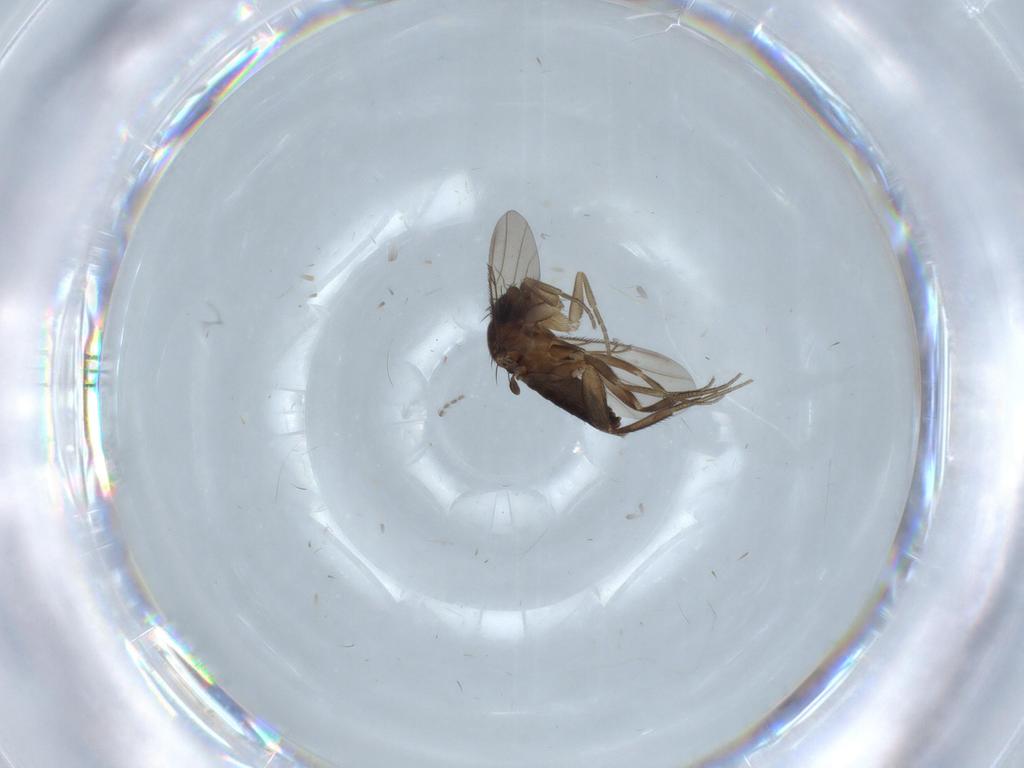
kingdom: Animalia
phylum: Arthropoda
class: Insecta
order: Diptera
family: Phoridae
